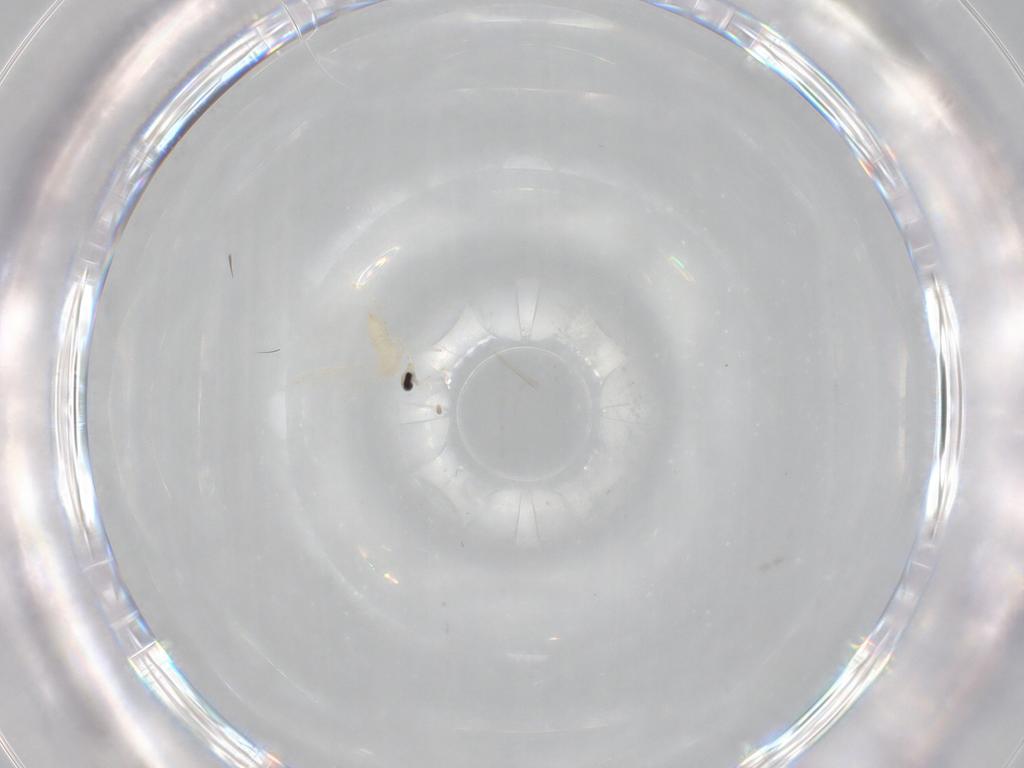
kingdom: Animalia
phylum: Arthropoda
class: Insecta
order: Diptera
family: Cecidomyiidae
